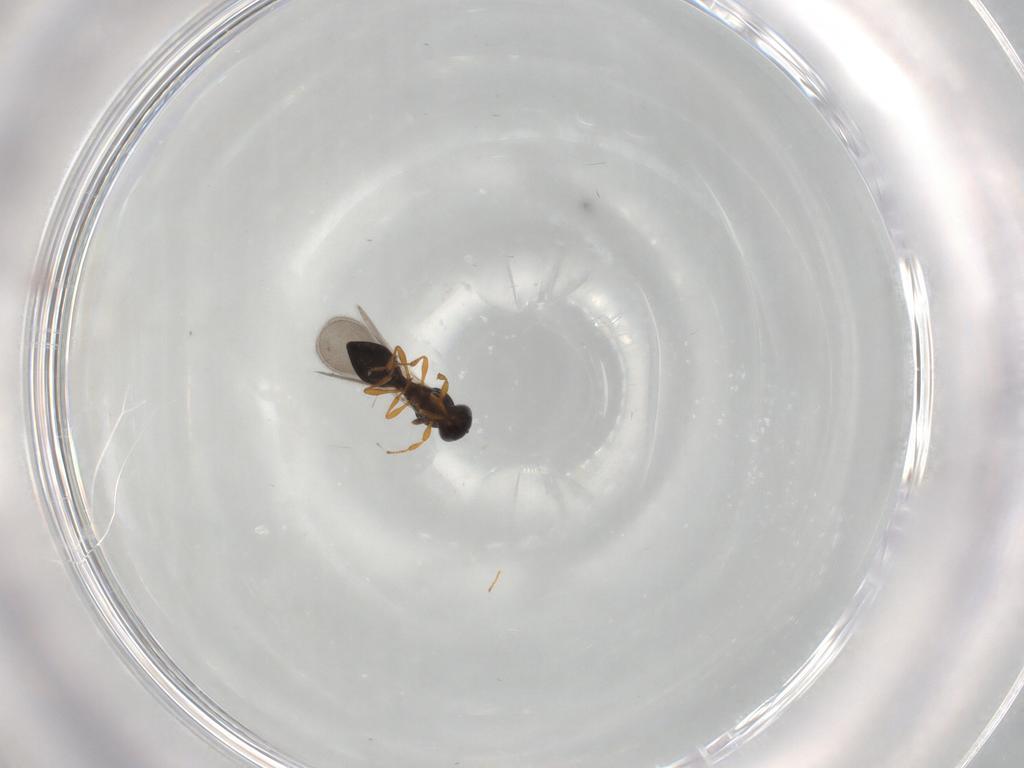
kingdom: Animalia
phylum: Arthropoda
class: Insecta
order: Hymenoptera
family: Platygastridae
